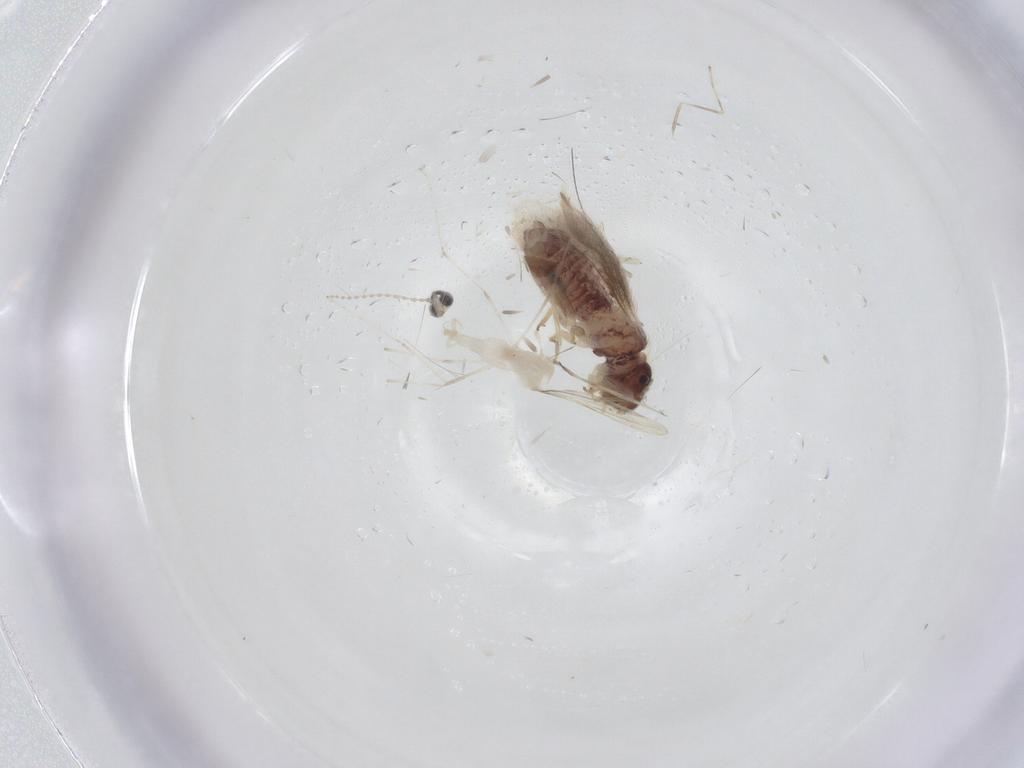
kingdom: Animalia
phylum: Arthropoda
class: Insecta
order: Psocodea
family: Archipsocidae
